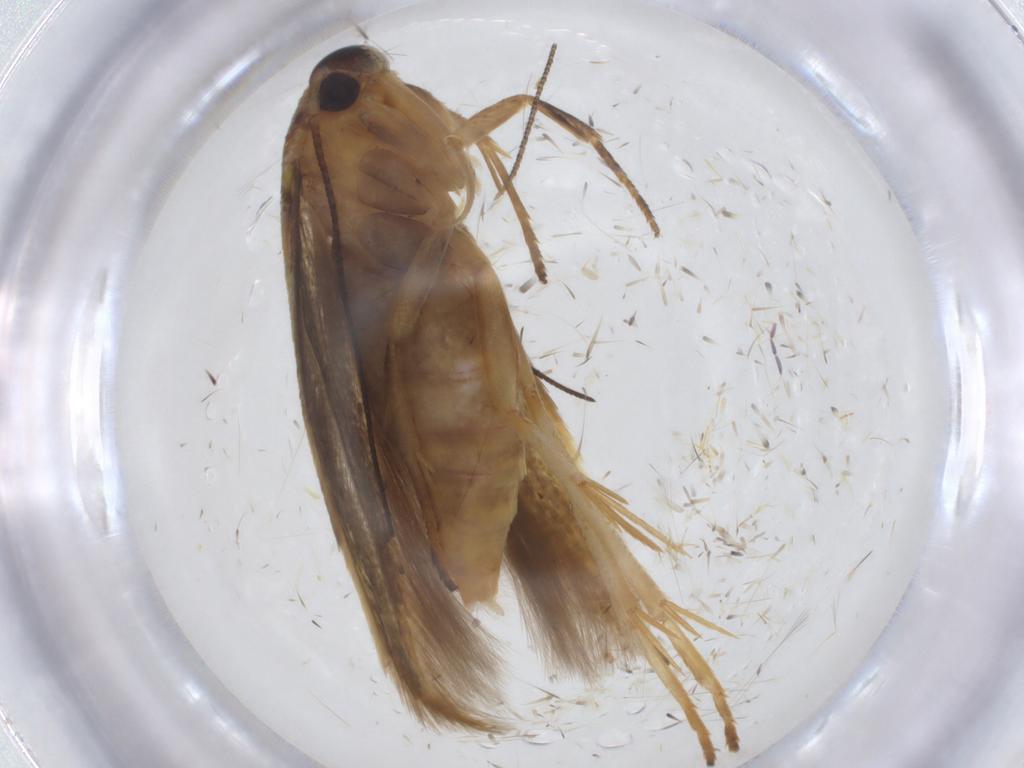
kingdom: Animalia
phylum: Arthropoda
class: Insecta
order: Lepidoptera
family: Stathmopodidae
